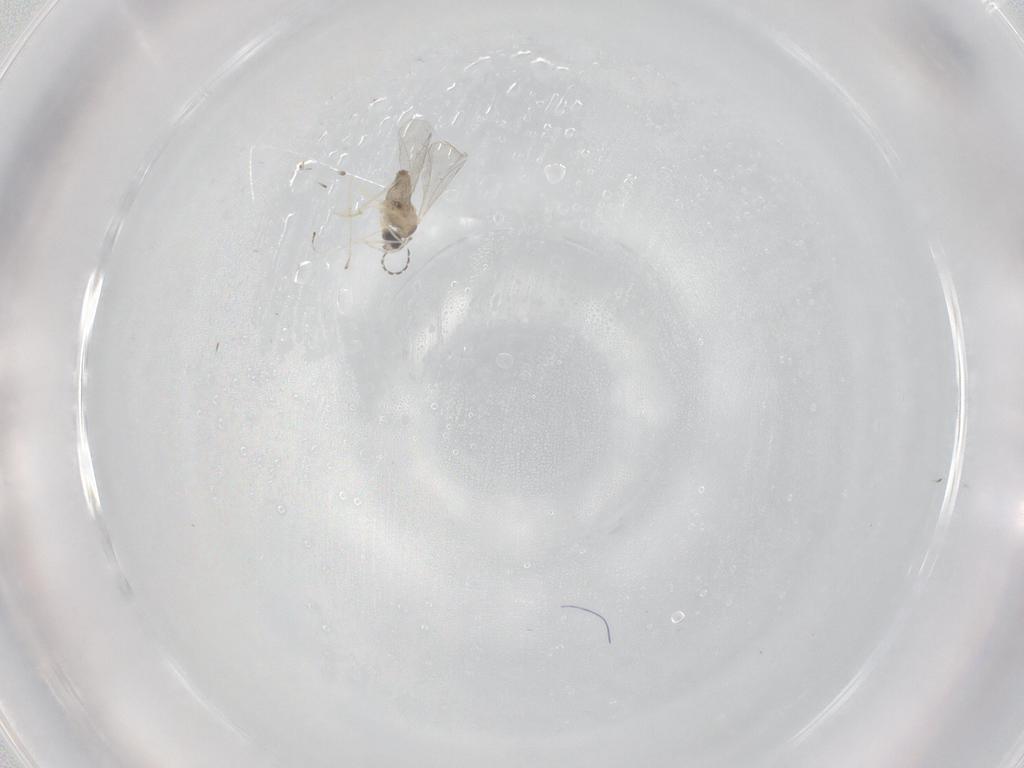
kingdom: Animalia
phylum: Arthropoda
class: Insecta
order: Diptera
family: Cecidomyiidae
